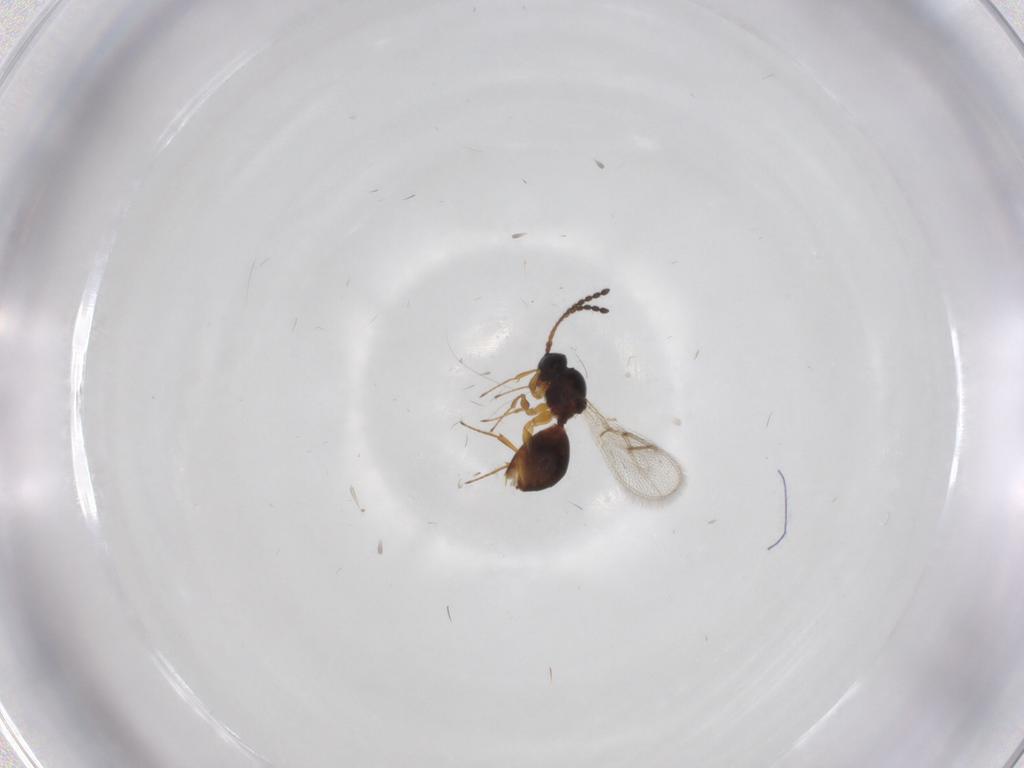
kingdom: Animalia
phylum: Arthropoda
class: Insecta
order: Hymenoptera
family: Figitidae
